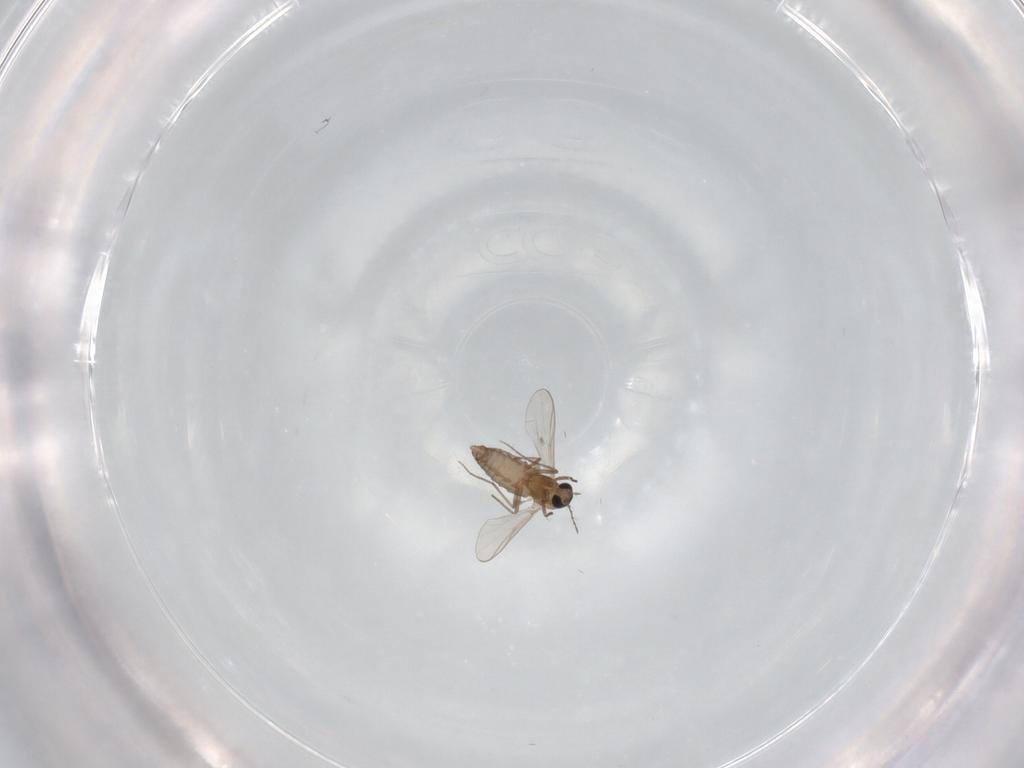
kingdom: Animalia
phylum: Arthropoda
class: Insecta
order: Diptera
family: Chironomidae
